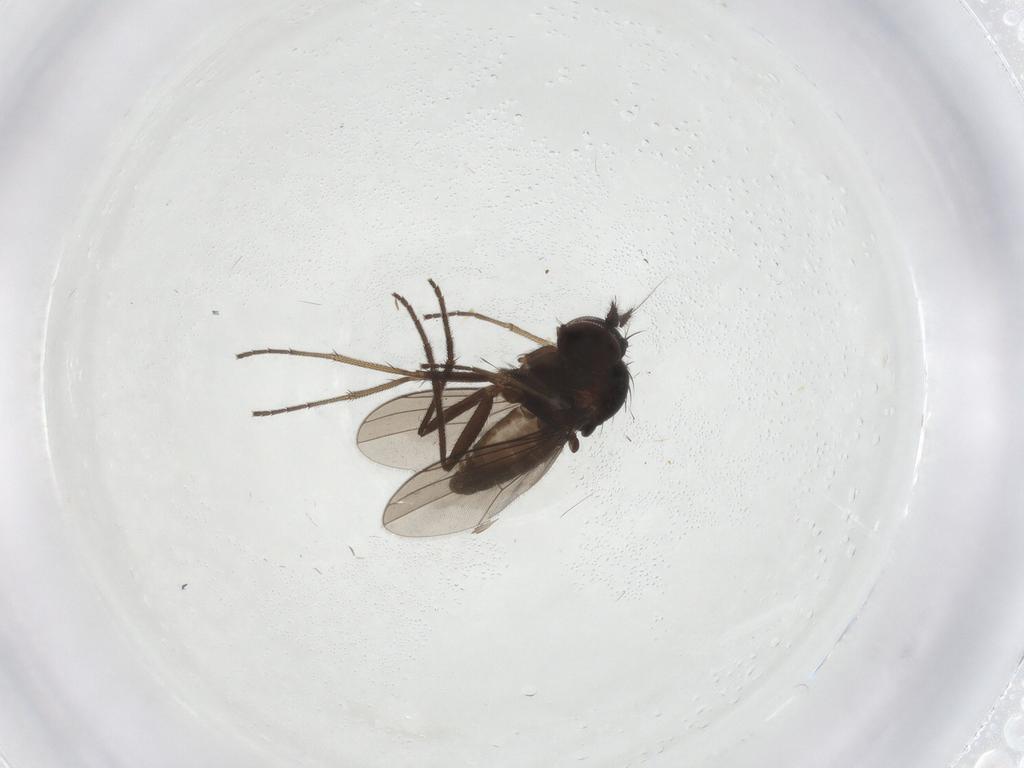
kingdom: Animalia
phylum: Arthropoda
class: Insecta
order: Diptera
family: Dolichopodidae
